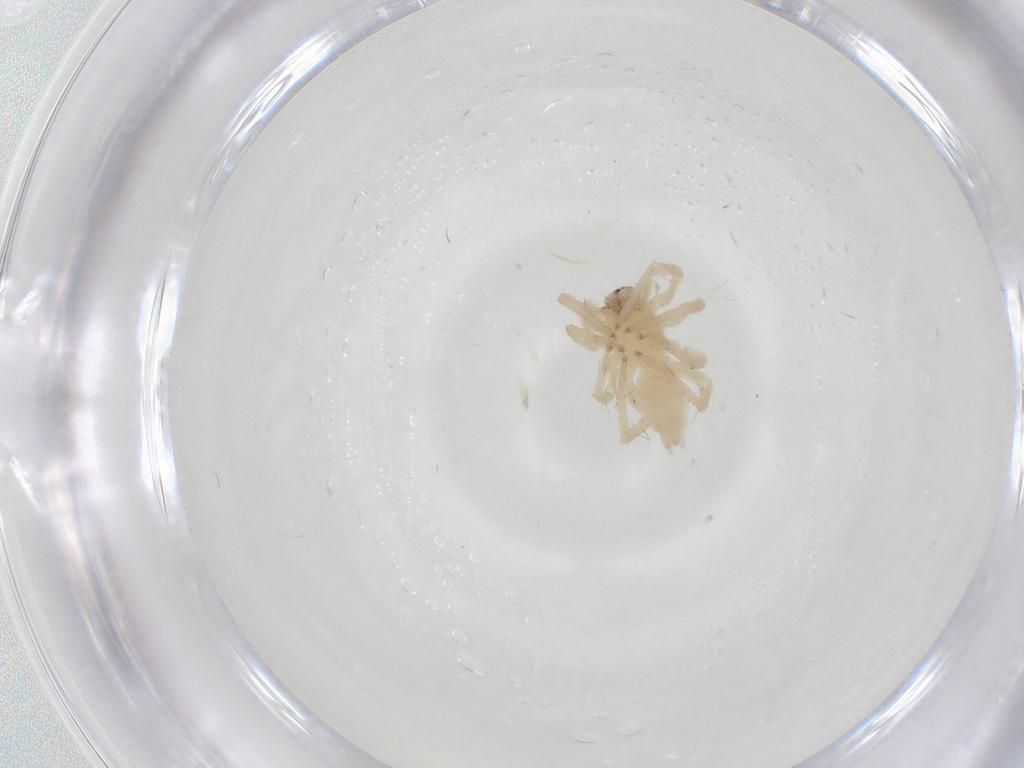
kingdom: Animalia
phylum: Arthropoda
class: Arachnida
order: Araneae
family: Anyphaenidae
